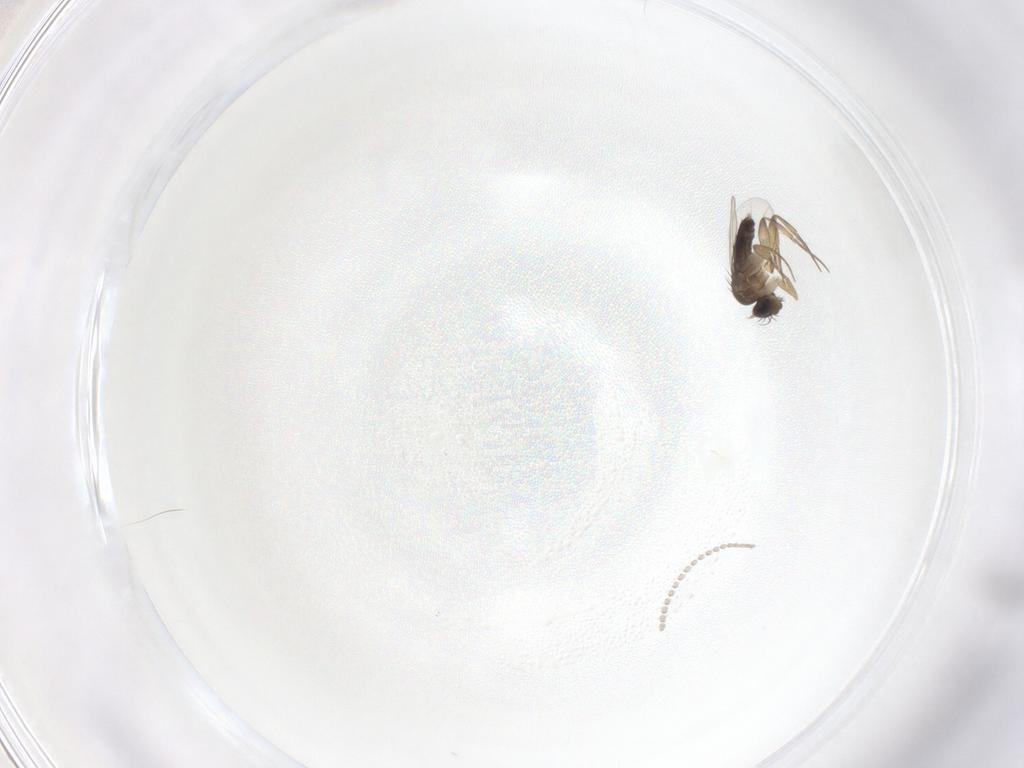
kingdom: Animalia
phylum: Arthropoda
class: Insecta
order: Diptera
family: Cecidomyiidae
